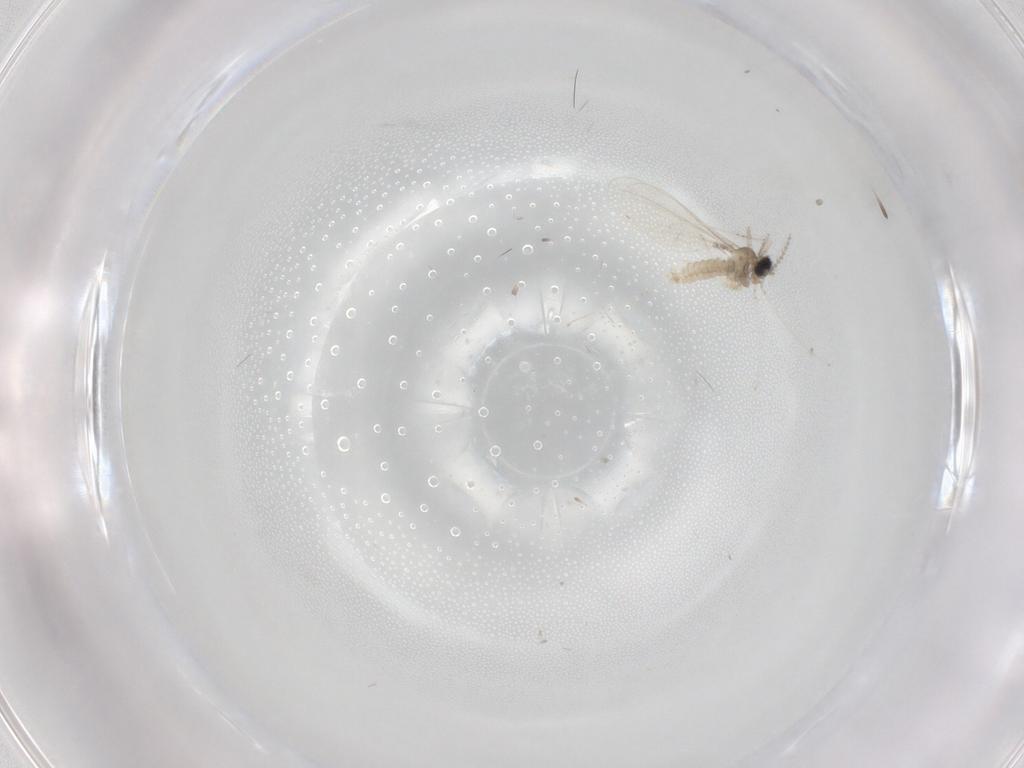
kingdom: Animalia
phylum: Arthropoda
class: Insecta
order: Diptera
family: Cecidomyiidae
